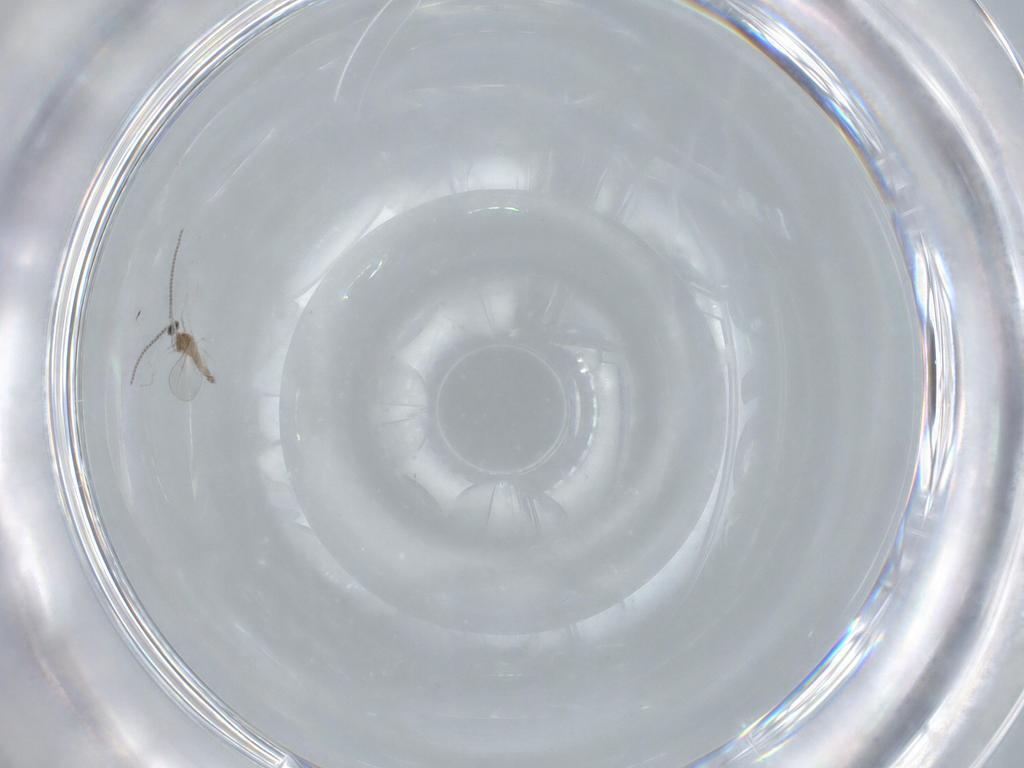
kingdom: Animalia
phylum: Arthropoda
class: Insecta
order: Diptera
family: Cecidomyiidae
